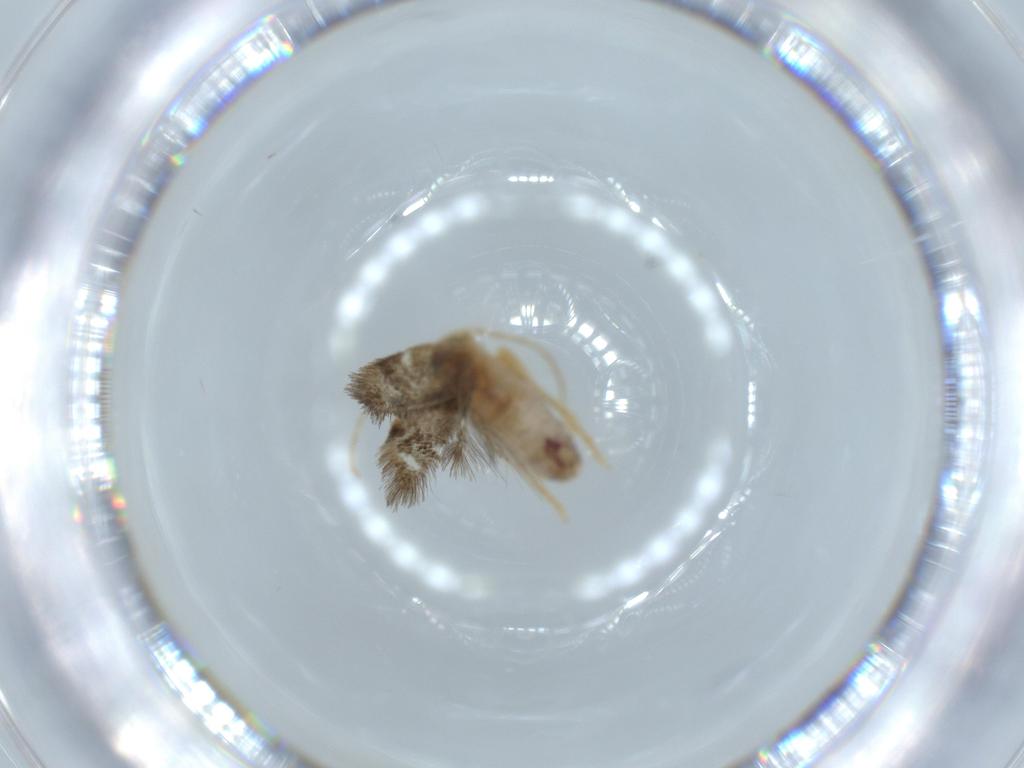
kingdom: Animalia
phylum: Arthropoda
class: Insecta
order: Lepidoptera
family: Nepticulidae
